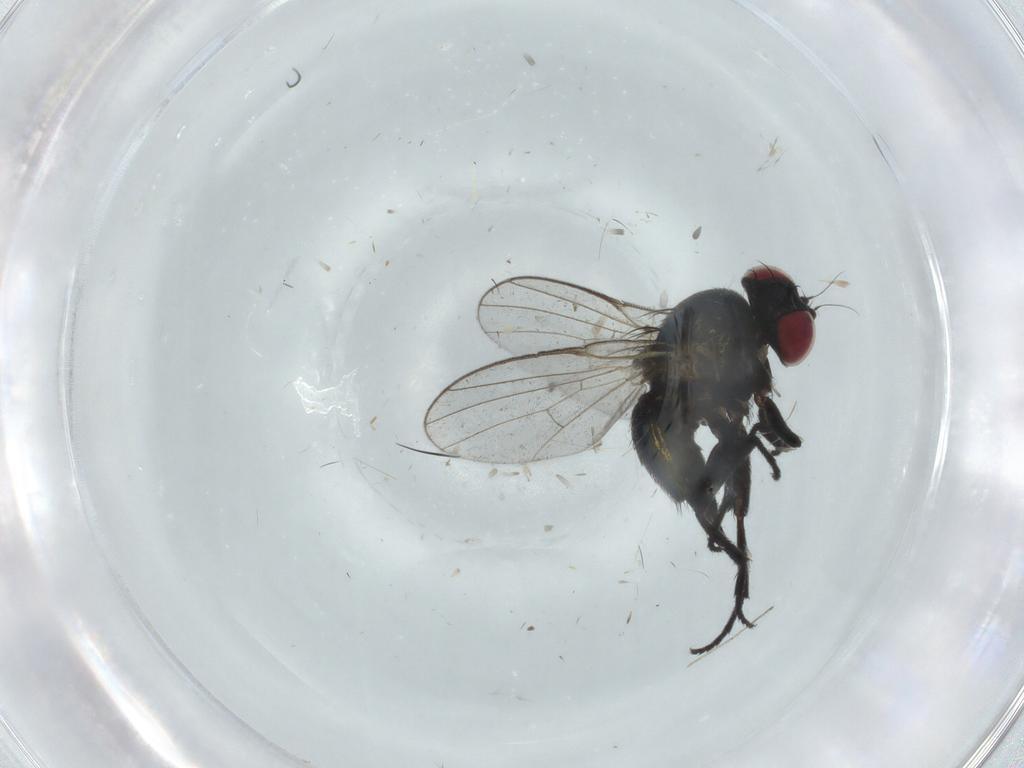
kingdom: Animalia
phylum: Arthropoda
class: Insecta
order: Diptera
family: Agromyzidae
